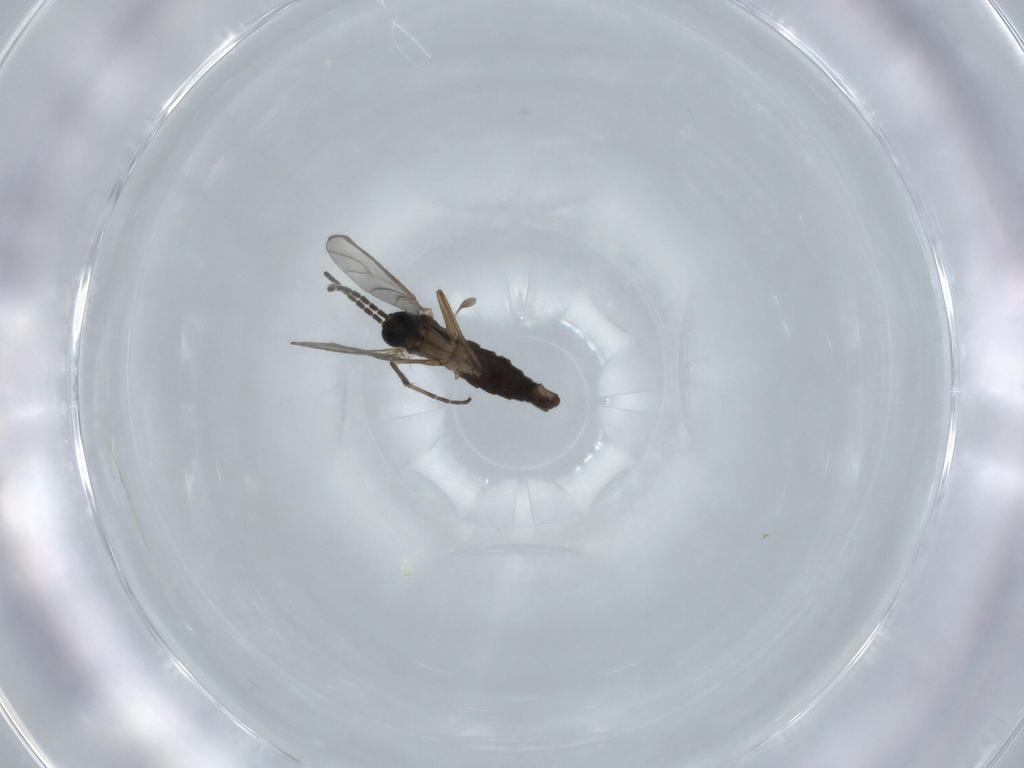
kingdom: Animalia
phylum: Arthropoda
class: Insecta
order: Diptera
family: Sciaridae
